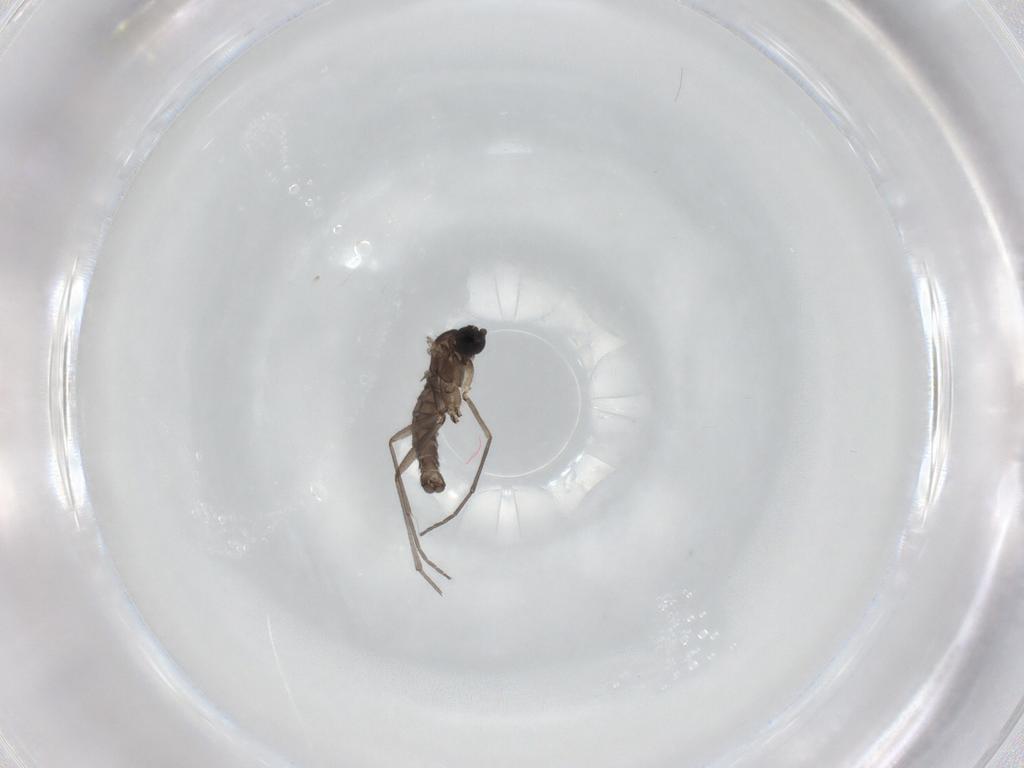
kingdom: Animalia
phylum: Arthropoda
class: Insecta
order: Diptera
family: Sciaridae
